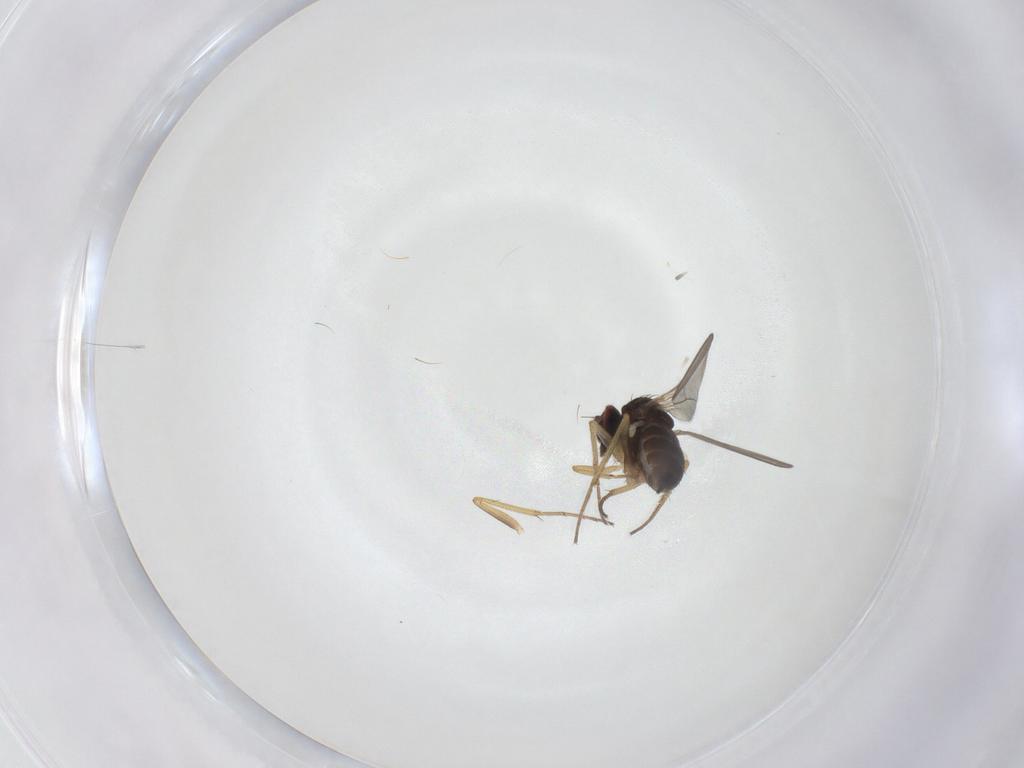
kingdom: Animalia
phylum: Arthropoda
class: Insecta
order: Diptera
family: Dolichopodidae
